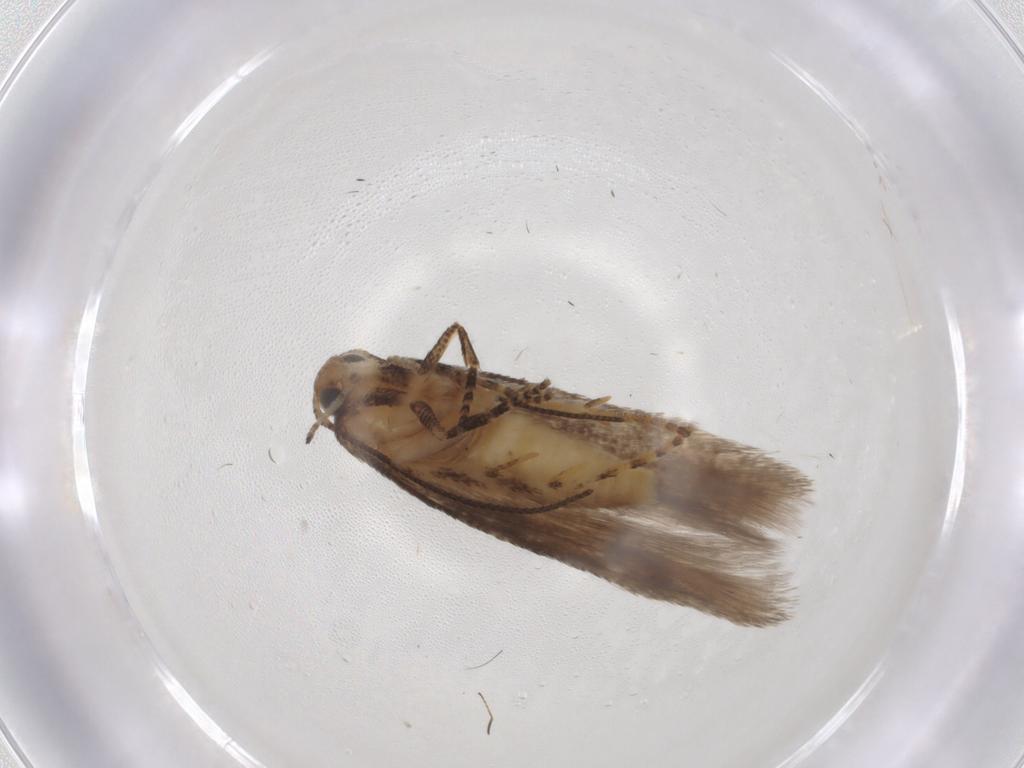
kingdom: Animalia
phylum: Arthropoda
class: Insecta
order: Lepidoptera
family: Gelechiidae
